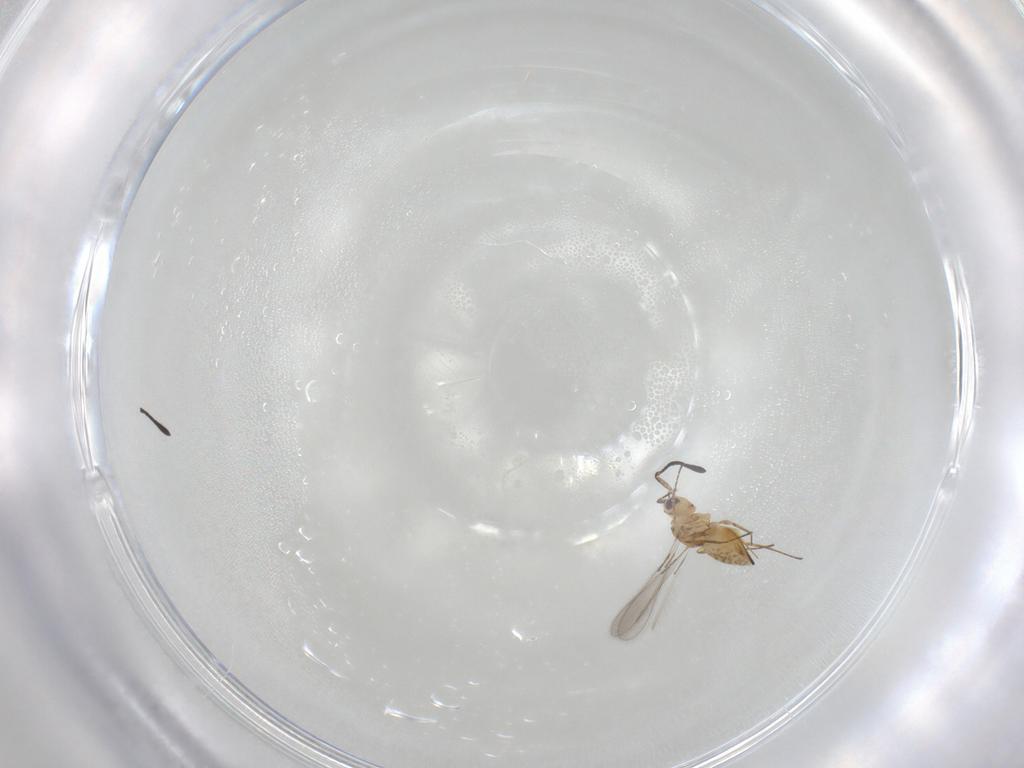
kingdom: Animalia
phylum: Arthropoda
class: Insecta
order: Hymenoptera
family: Mymaridae
